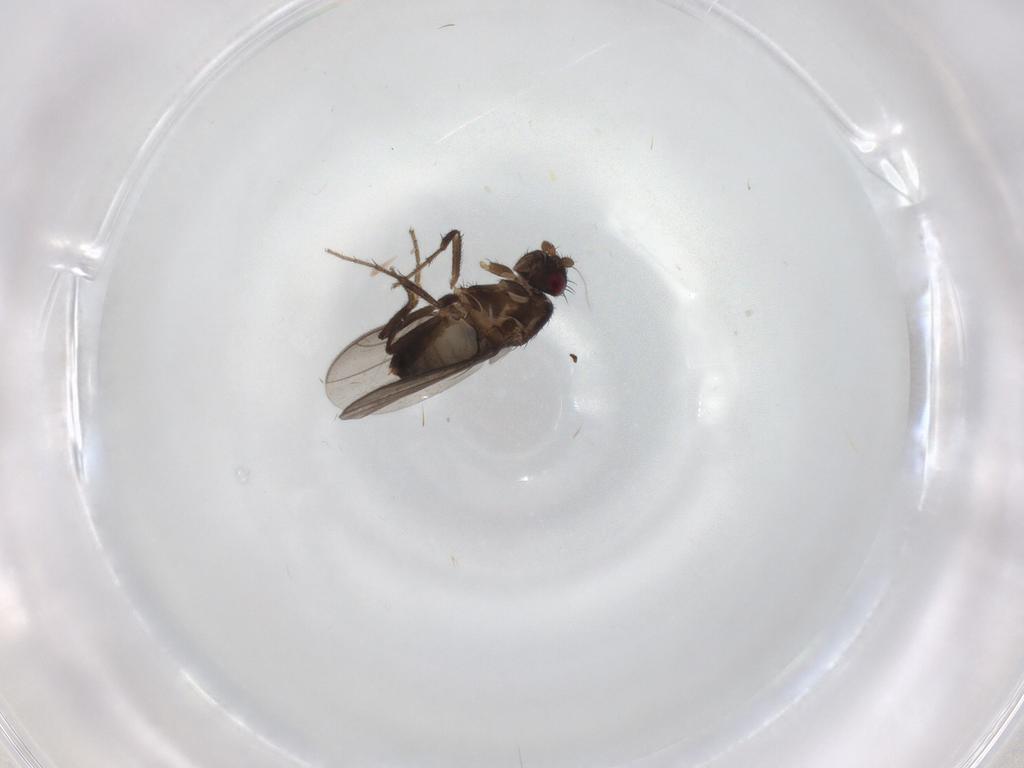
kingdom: Animalia
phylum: Arthropoda
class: Insecta
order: Diptera
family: Sphaeroceridae
